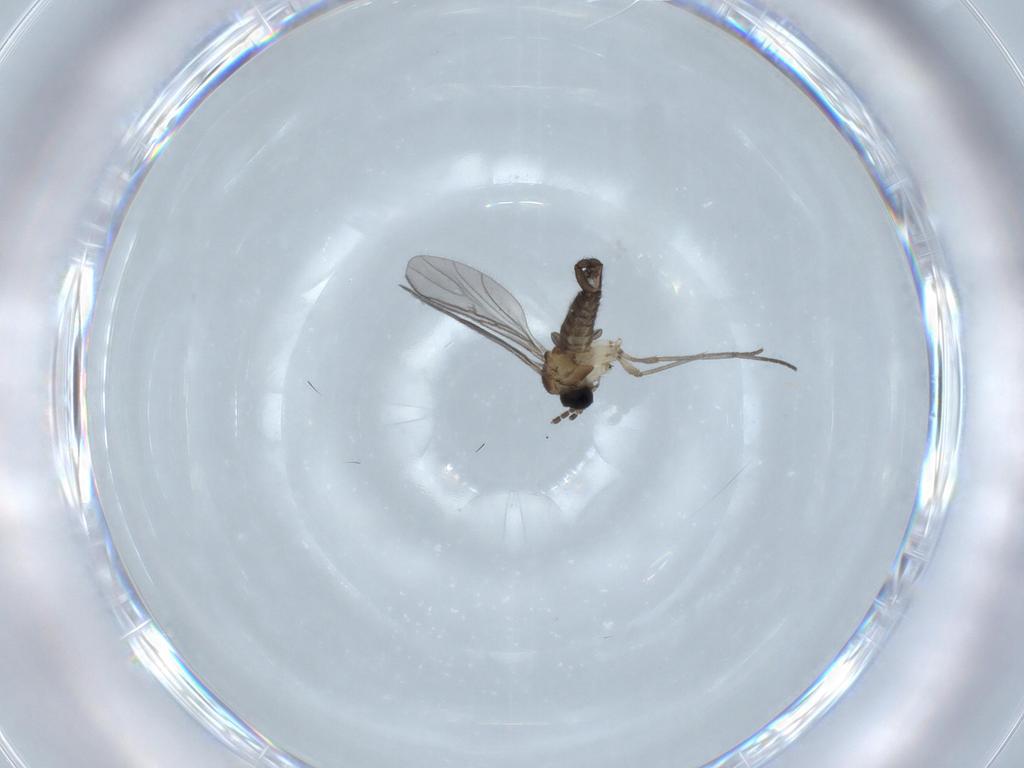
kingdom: Animalia
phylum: Arthropoda
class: Insecta
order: Diptera
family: Sciaridae
